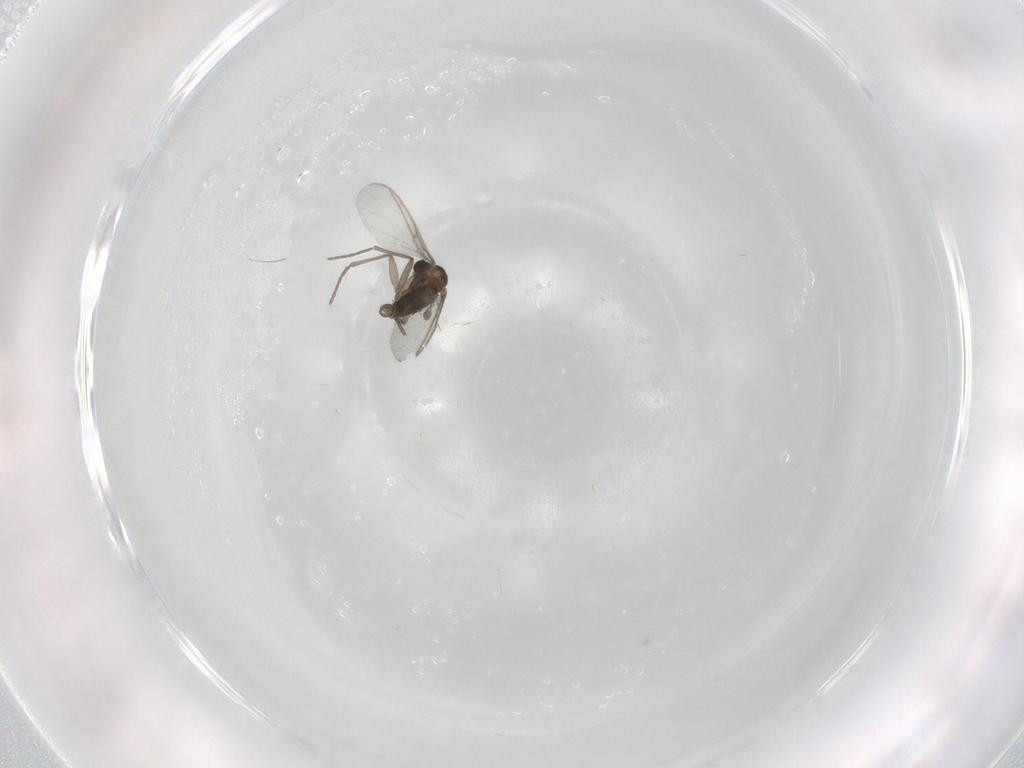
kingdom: Animalia
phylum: Arthropoda
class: Insecta
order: Diptera
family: Sciaridae
